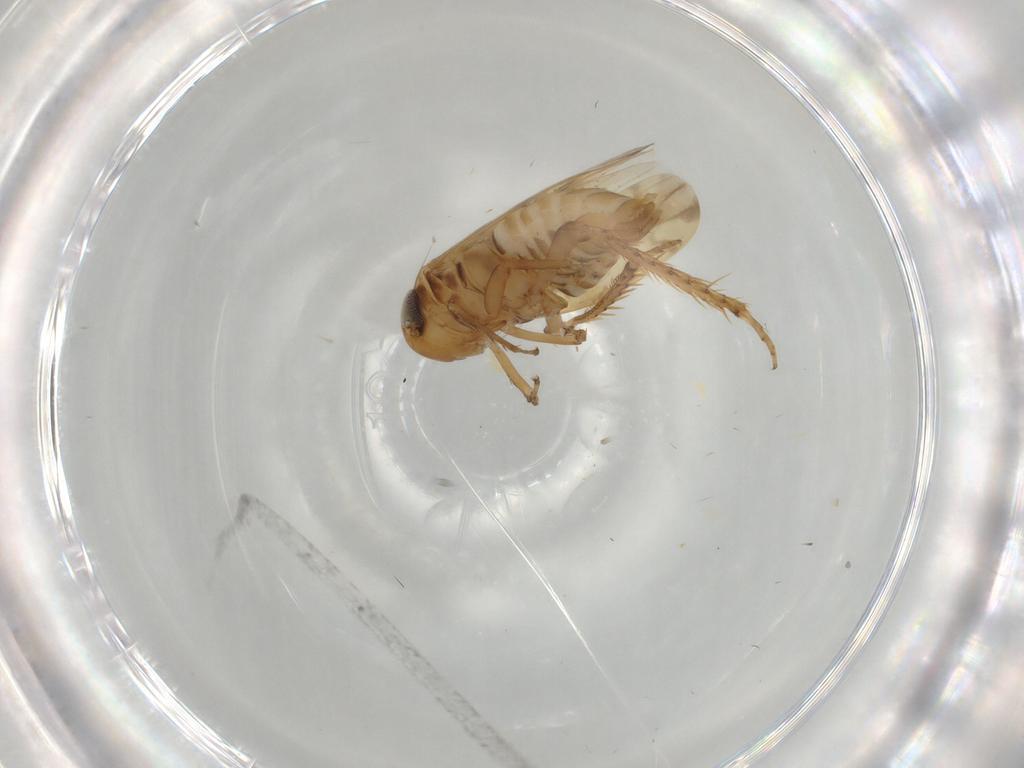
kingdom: Animalia
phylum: Arthropoda
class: Insecta
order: Hemiptera
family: Cicadellidae
